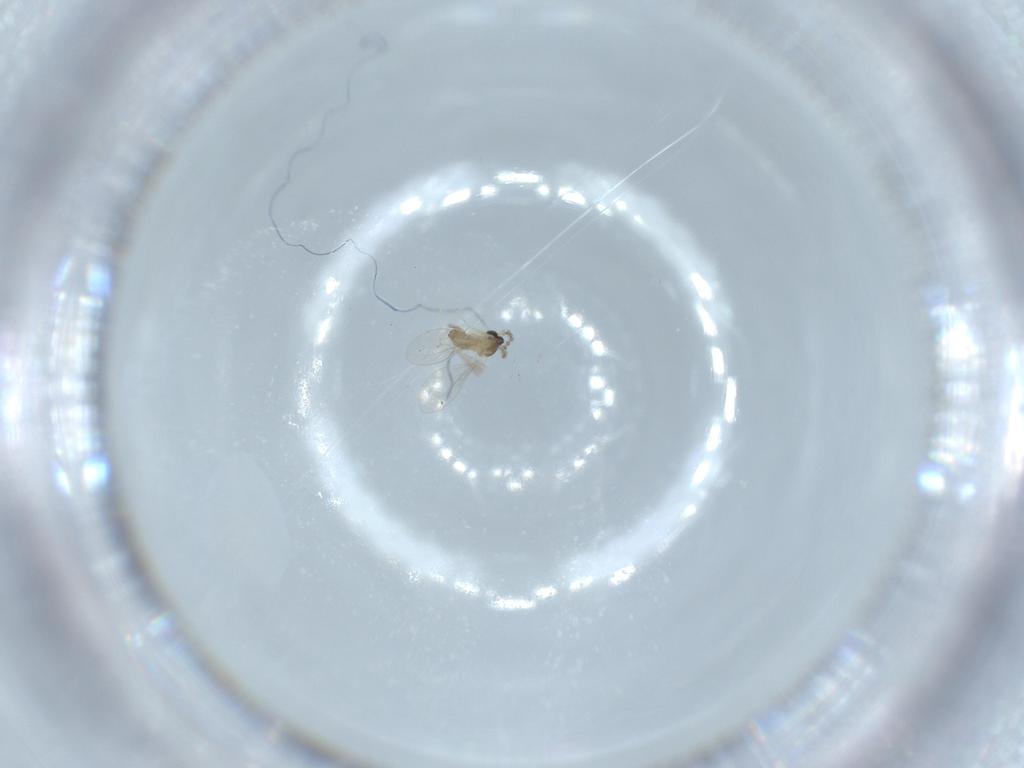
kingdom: Animalia
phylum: Arthropoda
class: Insecta
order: Diptera
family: Cecidomyiidae
